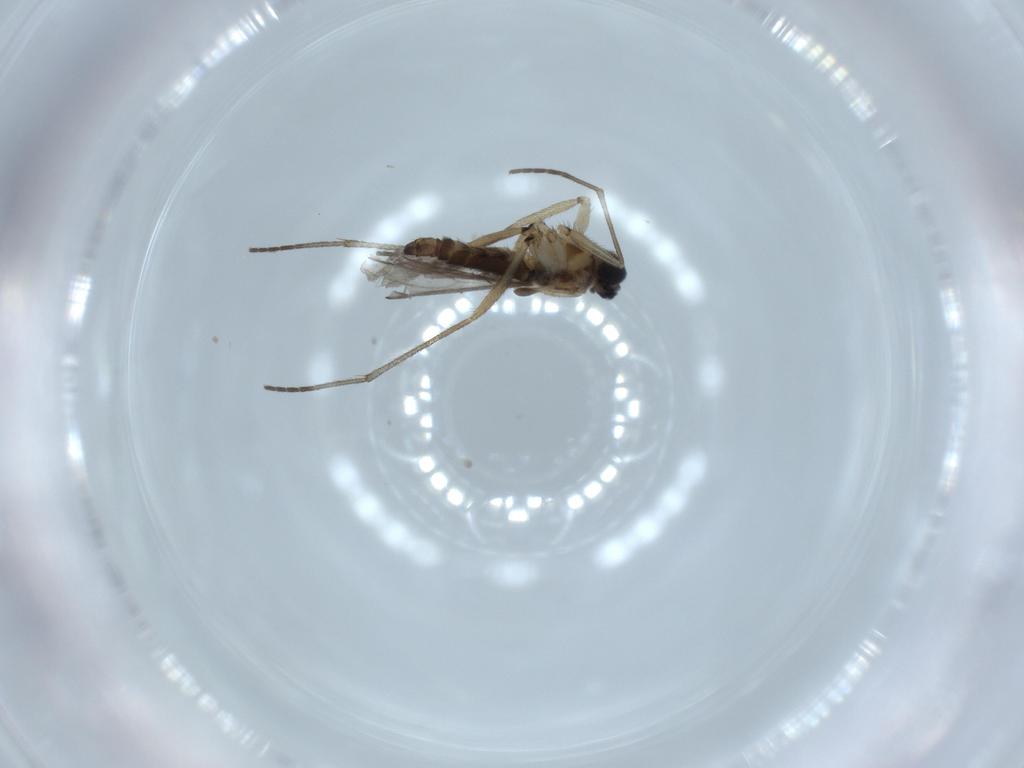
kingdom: Animalia
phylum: Arthropoda
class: Insecta
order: Diptera
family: Sciaridae
